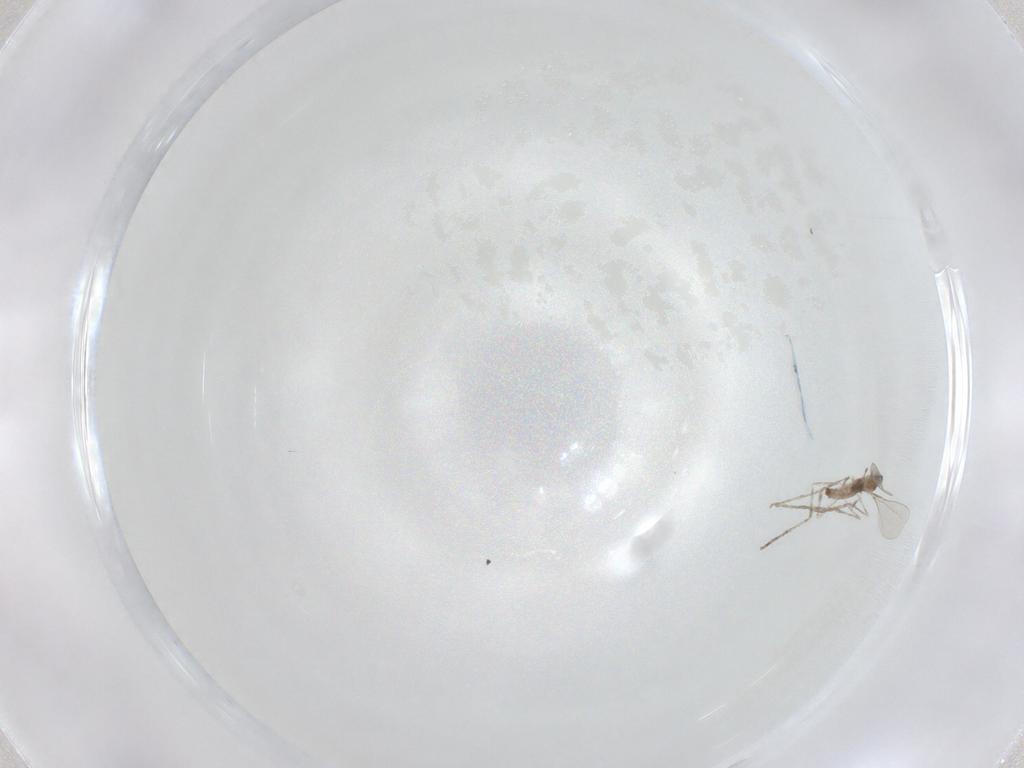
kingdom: Animalia
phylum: Arthropoda
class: Insecta
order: Diptera
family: Cecidomyiidae
